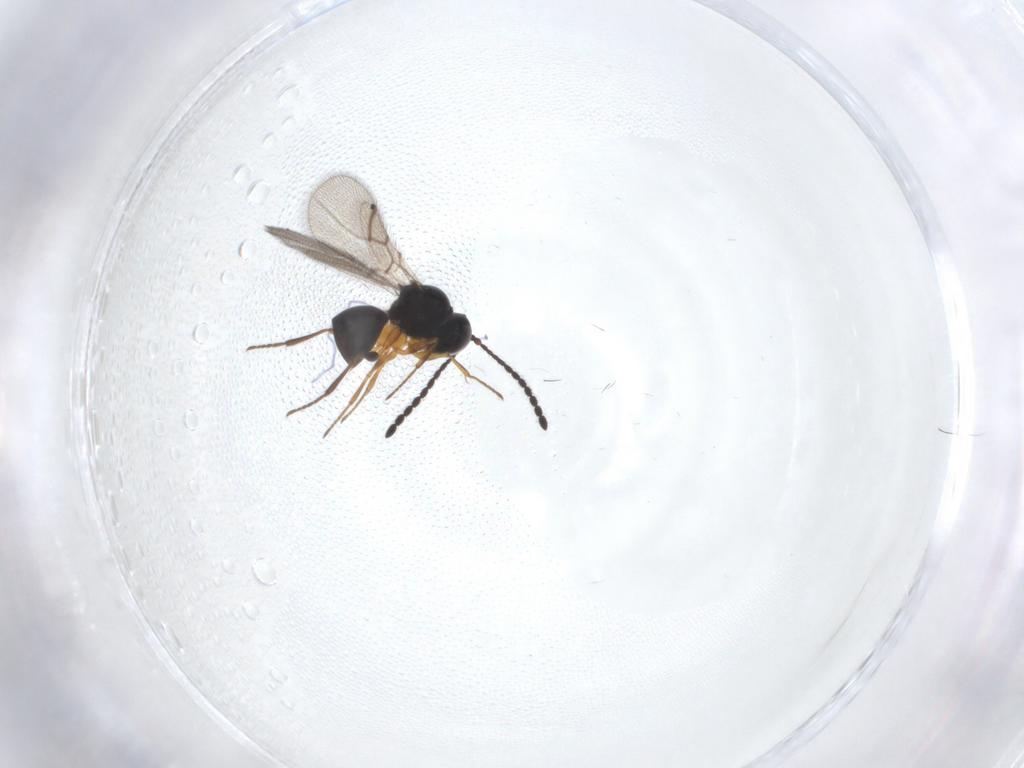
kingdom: Animalia
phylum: Arthropoda
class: Insecta
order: Hymenoptera
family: Figitidae
